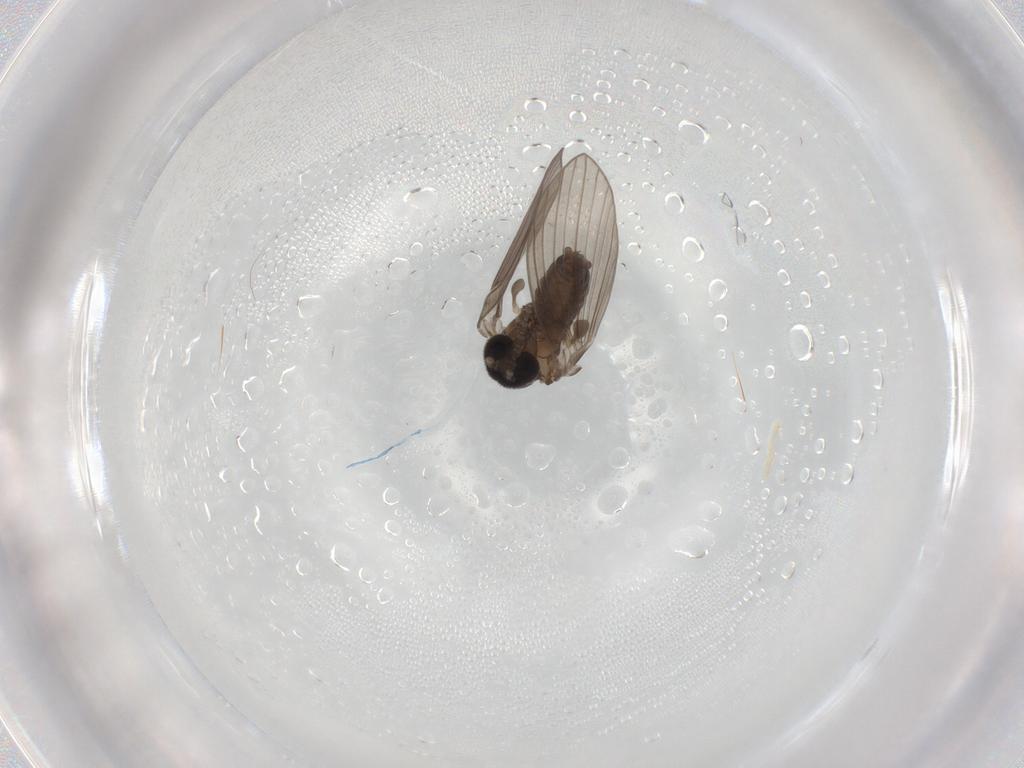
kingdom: Animalia
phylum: Arthropoda
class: Insecta
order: Diptera
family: Psychodidae
